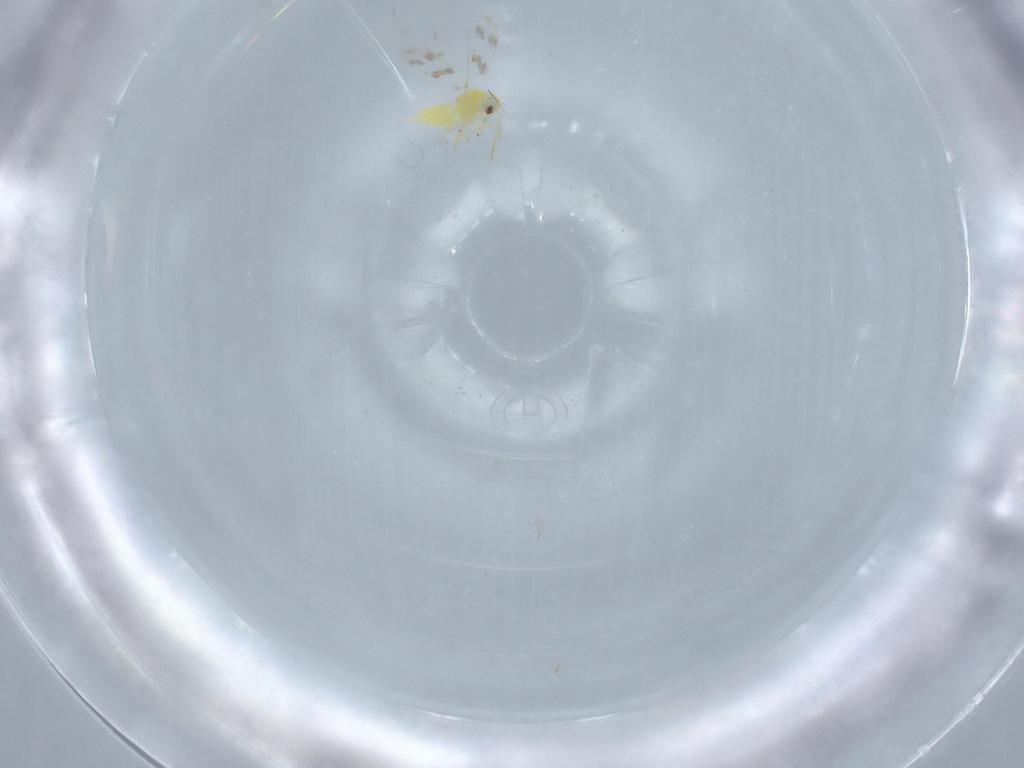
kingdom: Animalia
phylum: Arthropoda
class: Insecta
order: Hemiptera
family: Aleyrodidae
